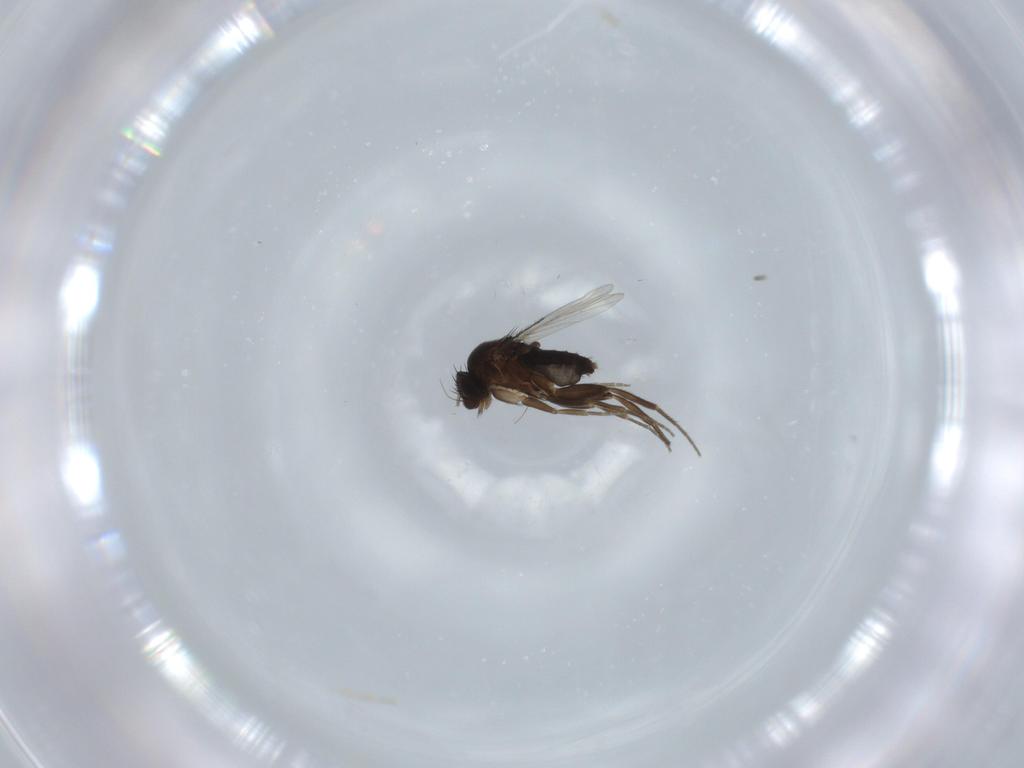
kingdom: Animalia
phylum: Arthropoda
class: Insecta
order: Diptera
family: Phoridae
